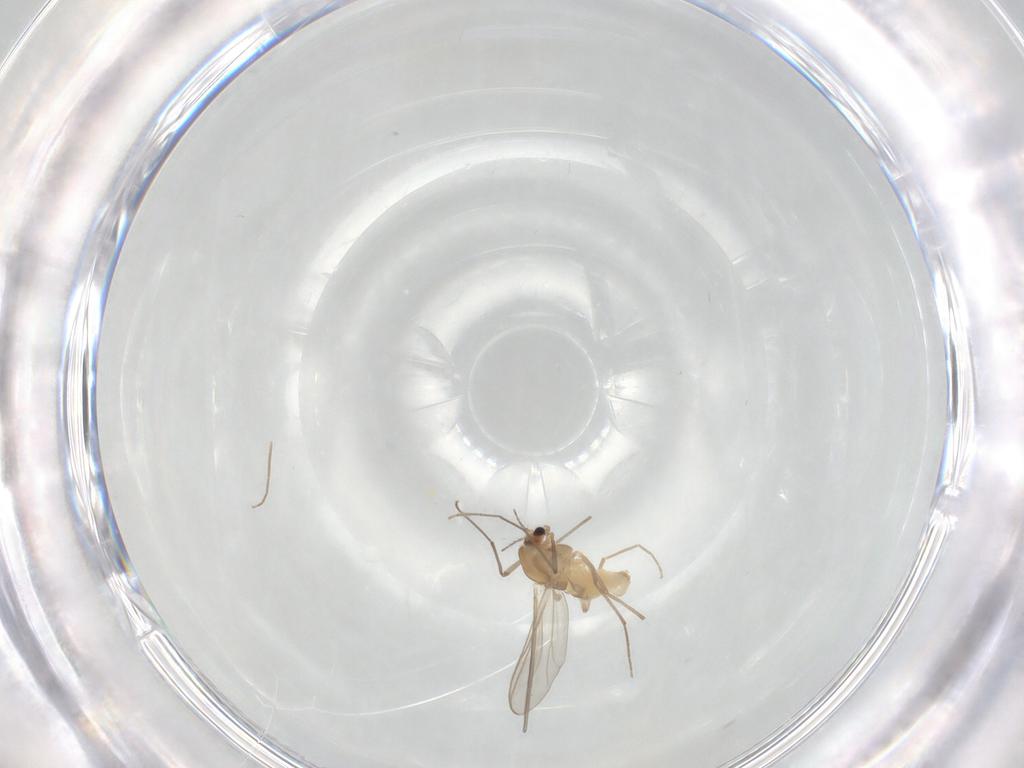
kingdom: Animalia
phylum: Arthropoda
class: Insecta
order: Diptera
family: Chironomidae
